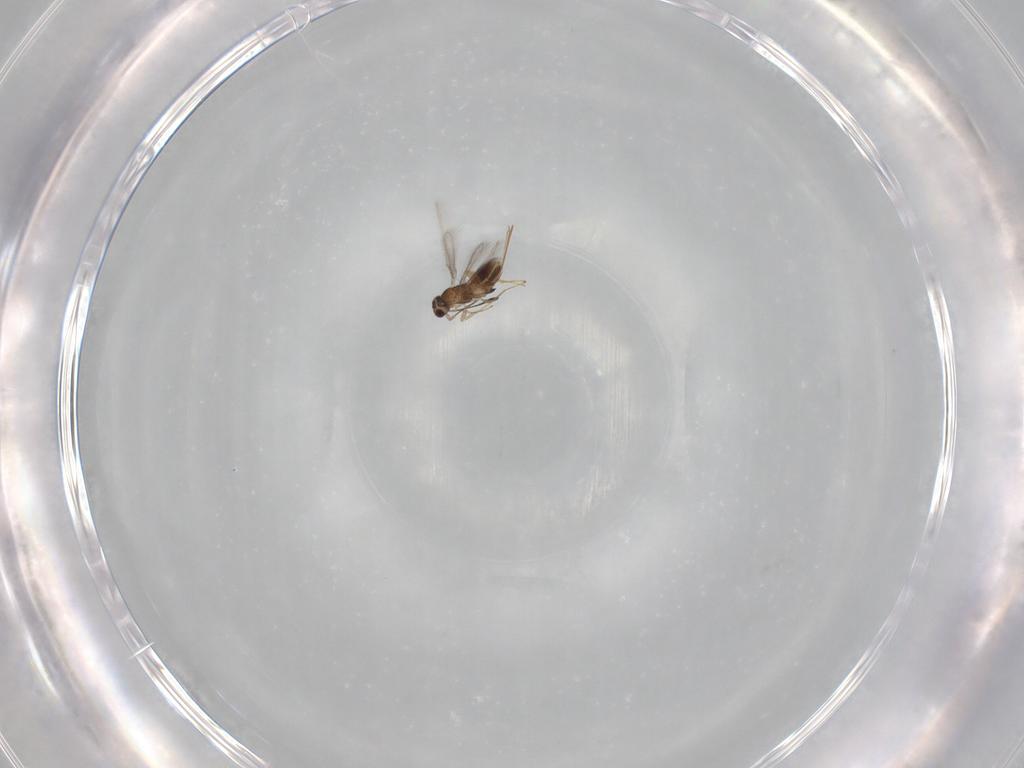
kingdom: Animalia
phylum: Arthropoda
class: Insecta
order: Hymenoptera
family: Mymaridae
